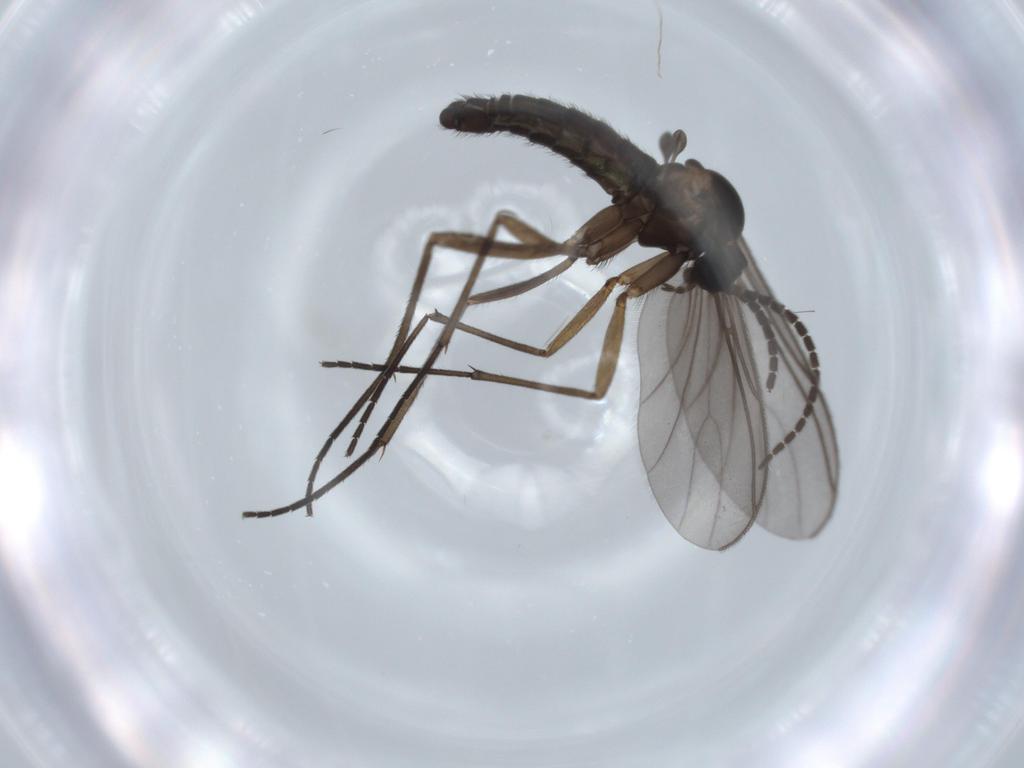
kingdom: Animalia
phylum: Arthropoda
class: Insecta
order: Diptera
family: Sciaridae
